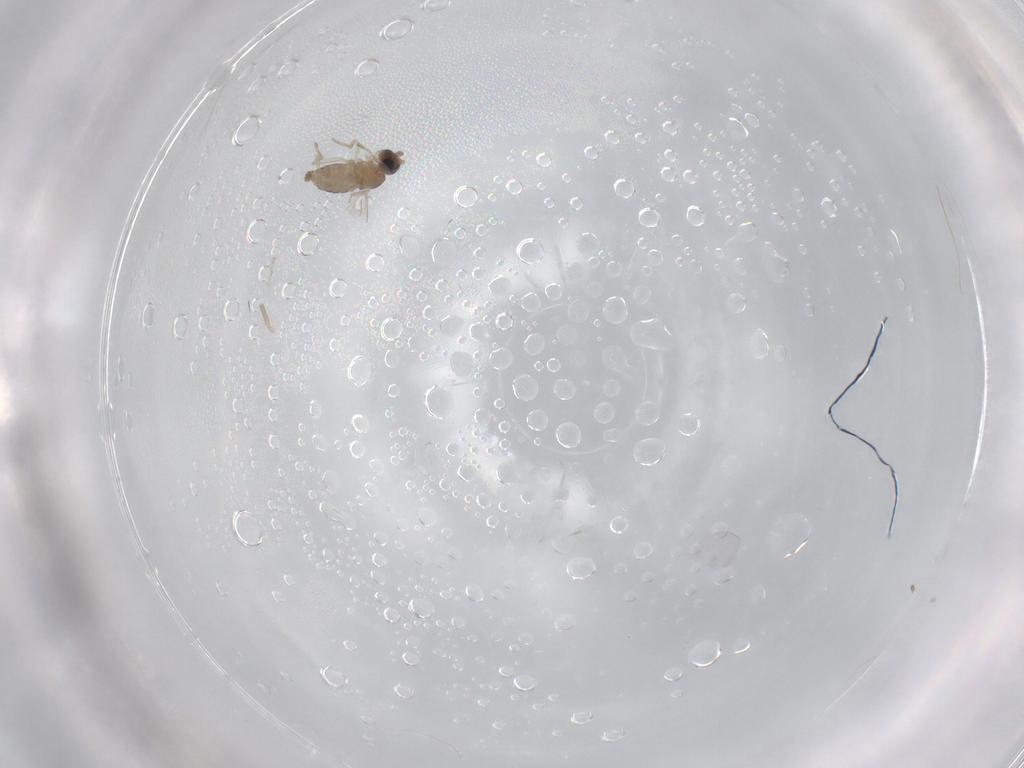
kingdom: Animalia
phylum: Arthropoda
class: Insecta
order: Diptera
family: Cecidomyiidae
